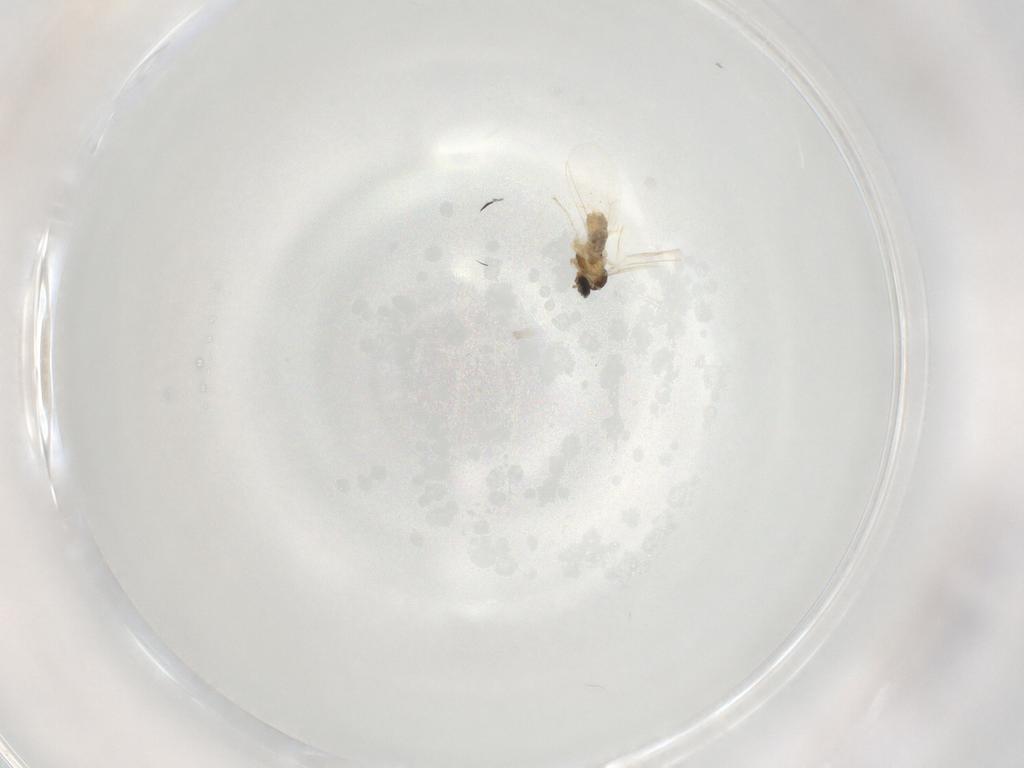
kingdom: Animalia
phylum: Arthropoda
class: Insecta
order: Diptera
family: Cecidomyiidae
